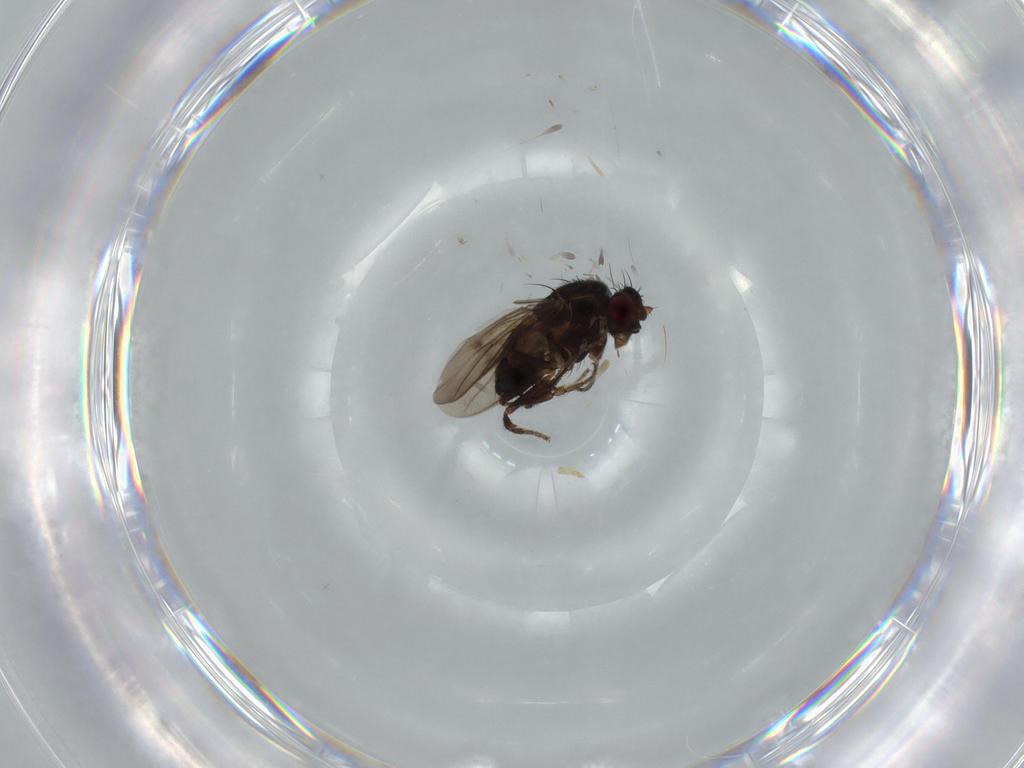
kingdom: Animalia
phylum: Arthropoda
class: Insecta
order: Diptera
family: Sphaeroceridae
